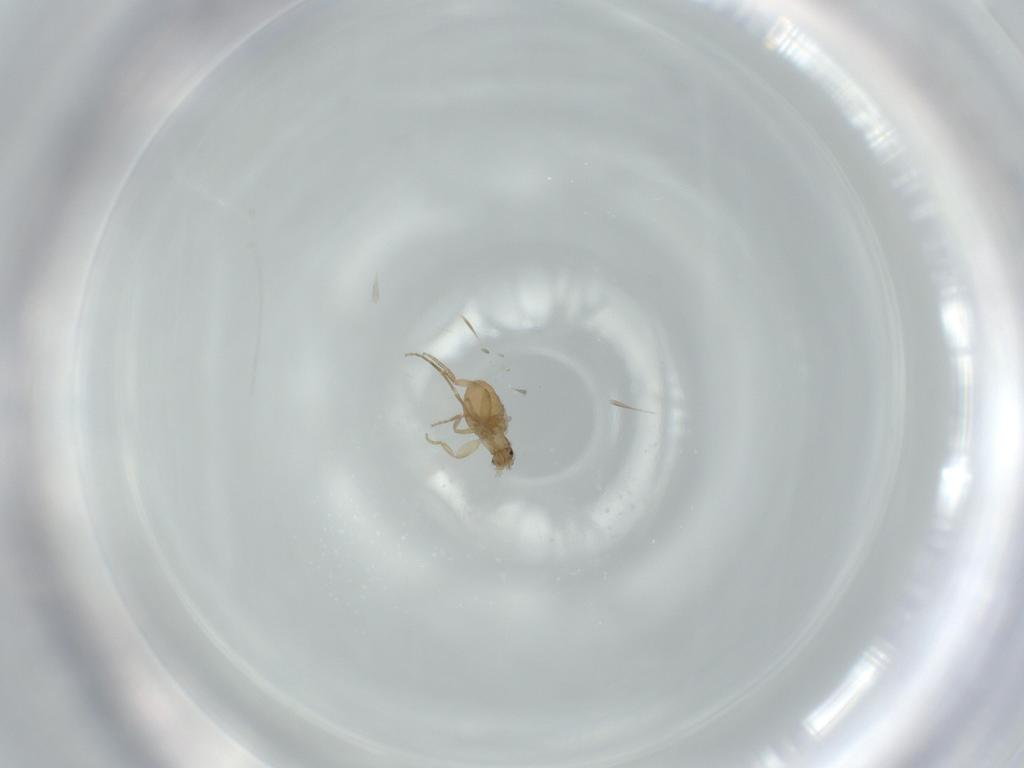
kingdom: Animalia
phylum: Arthropoda
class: Insecta
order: Diptera
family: Phoridae
